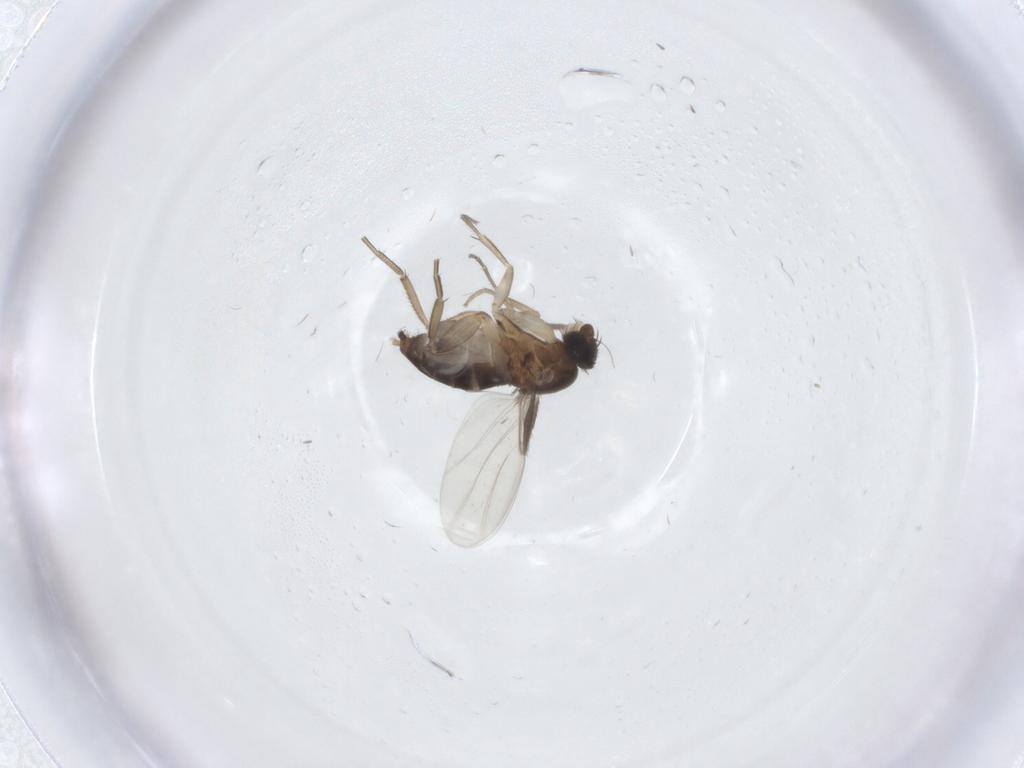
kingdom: Animalia
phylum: Arthropoda
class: Insecta
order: Diptera
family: Phoridae
